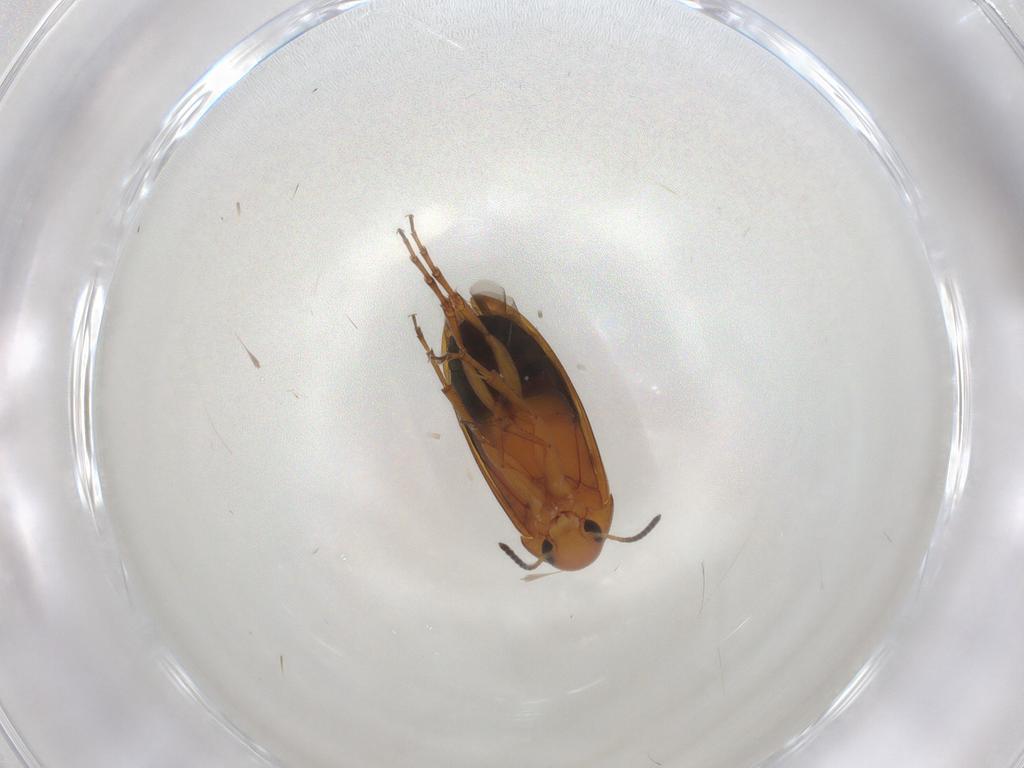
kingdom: Animalia
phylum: Arthropoda
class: Insecta
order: Coleoptera
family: Scraptiidae
